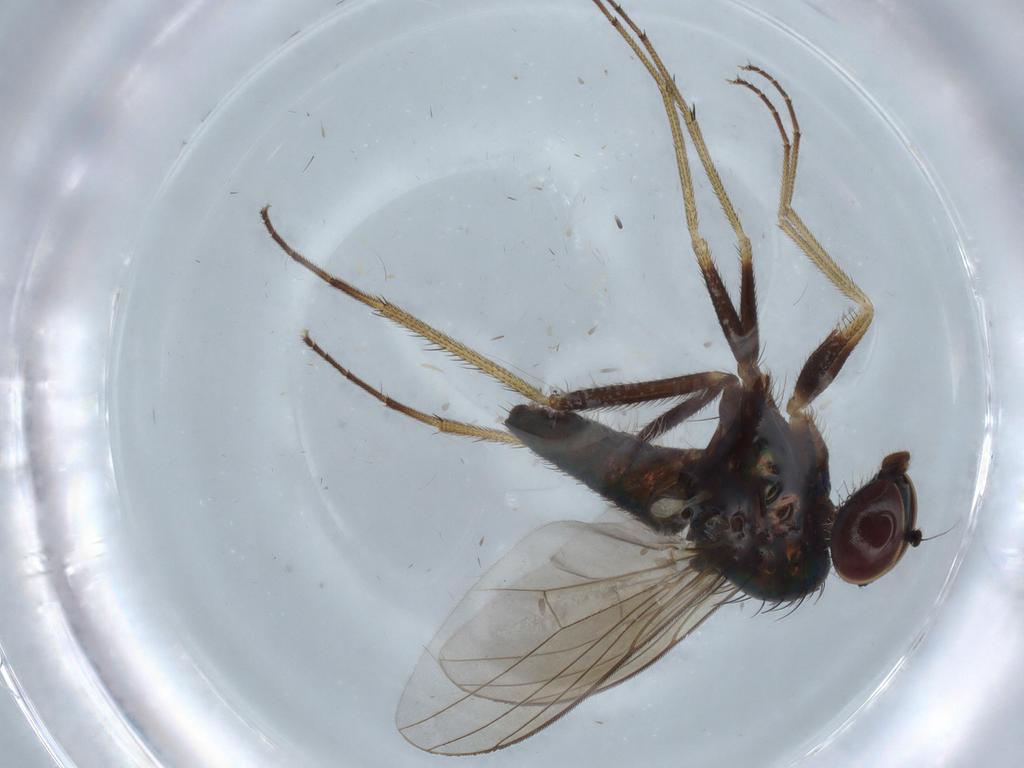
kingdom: Animalia
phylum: Arthropoda
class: Insecta
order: Diptera
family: Dolichopodidae
